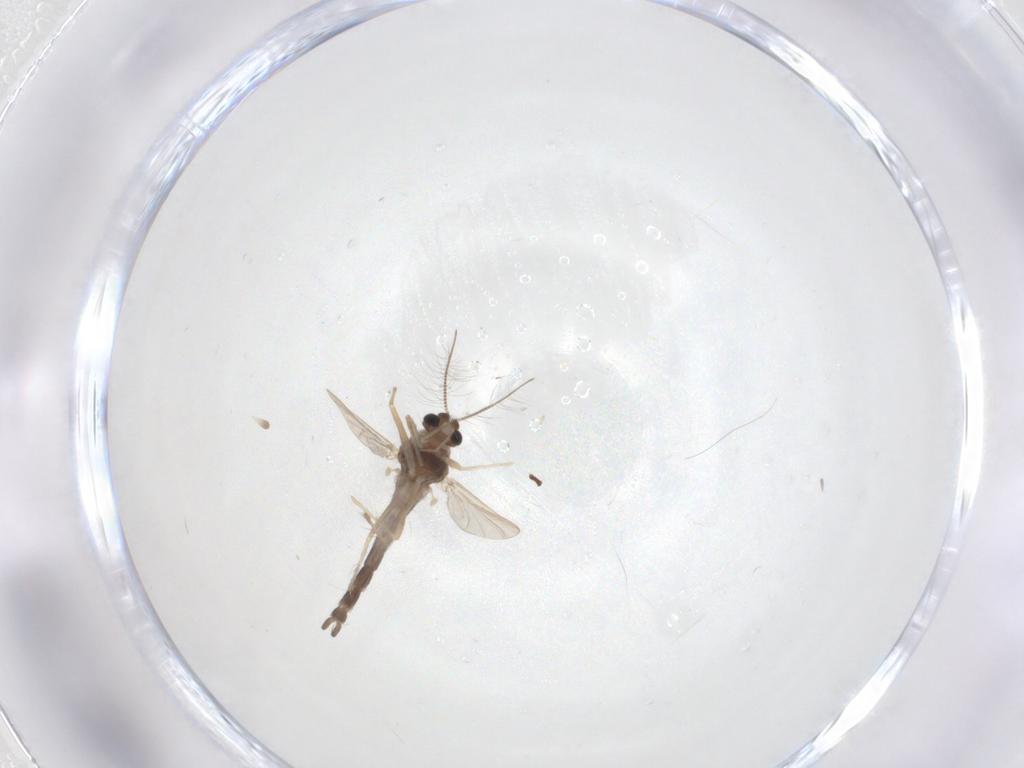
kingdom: Animalia
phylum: Arthropoda
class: Insecta
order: Diptera
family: Chironomidae
